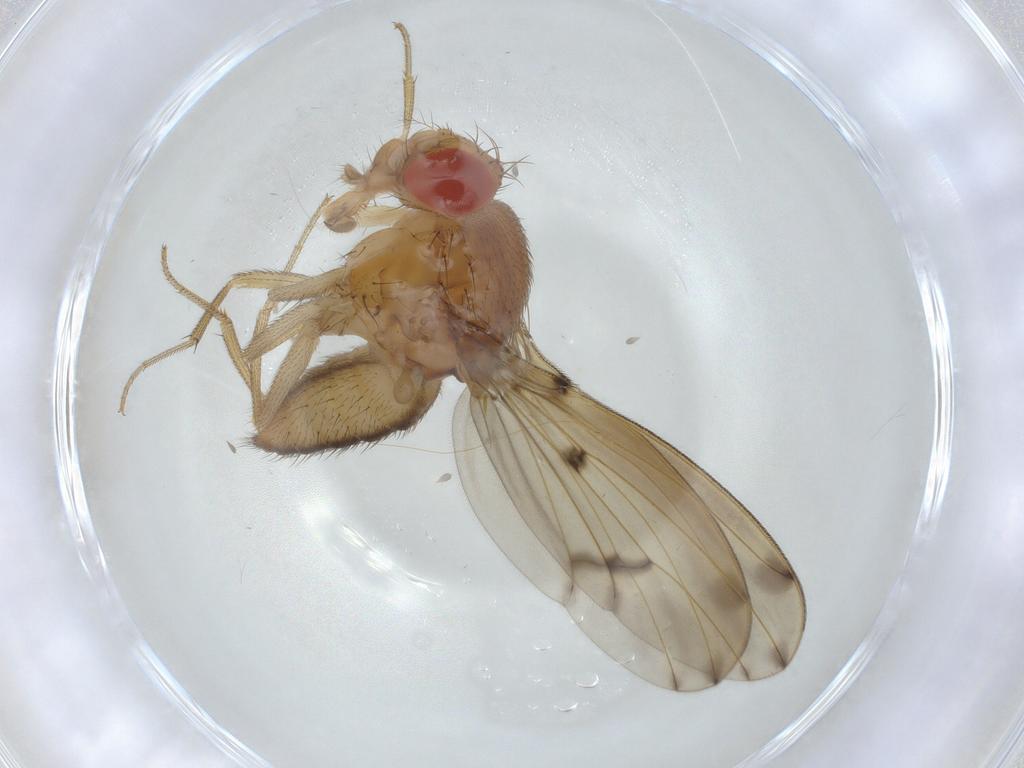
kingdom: Animalia
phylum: Arthropoda
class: Insecta
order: Diptera
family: Drosophilidae
